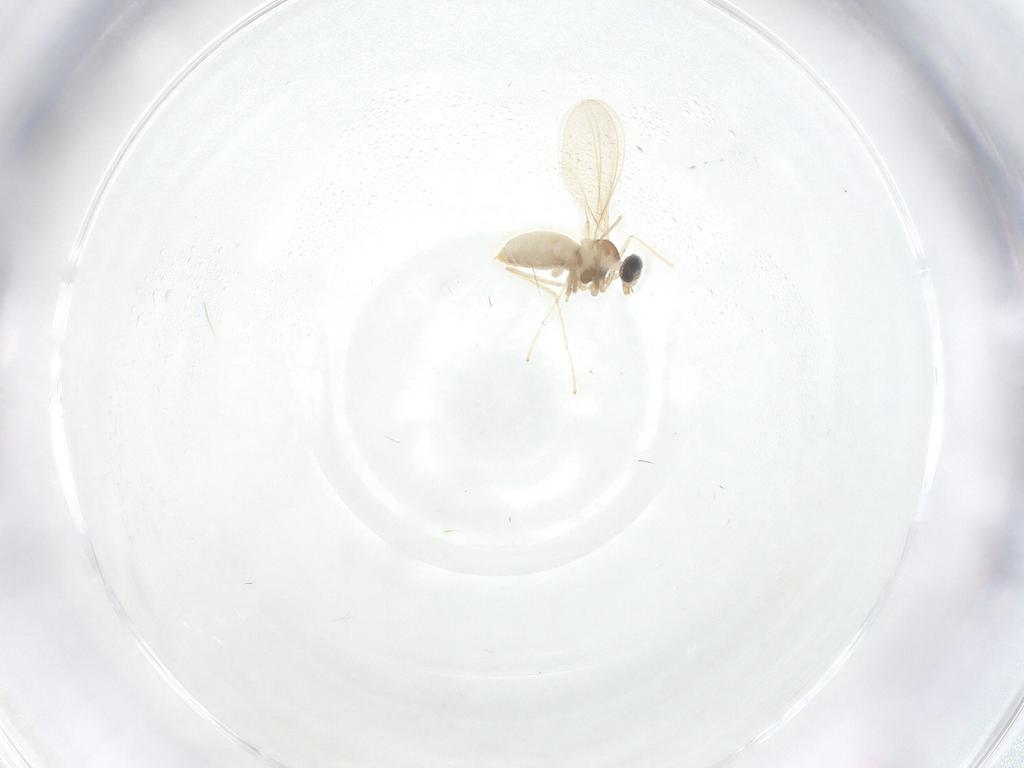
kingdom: Animalia
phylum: Arthropoda
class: Insecta
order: Diptera
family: Cecidomyiidae
